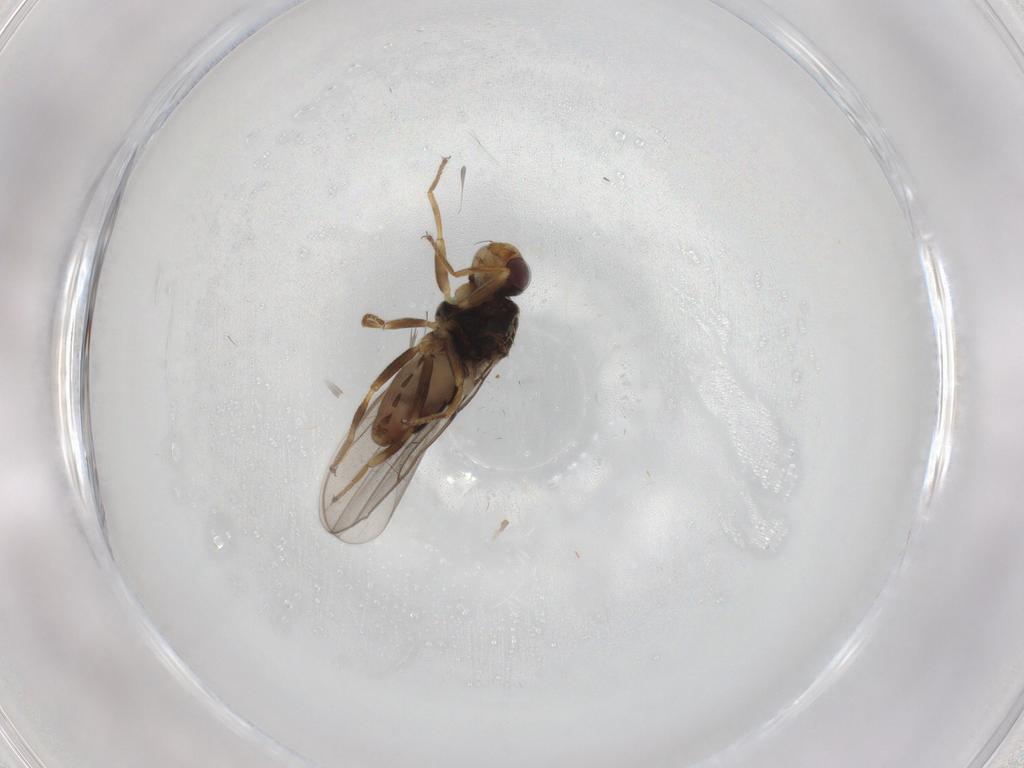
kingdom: Animalia
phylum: Arthropoda
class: Insecta
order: Diptera
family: Chloropidae
